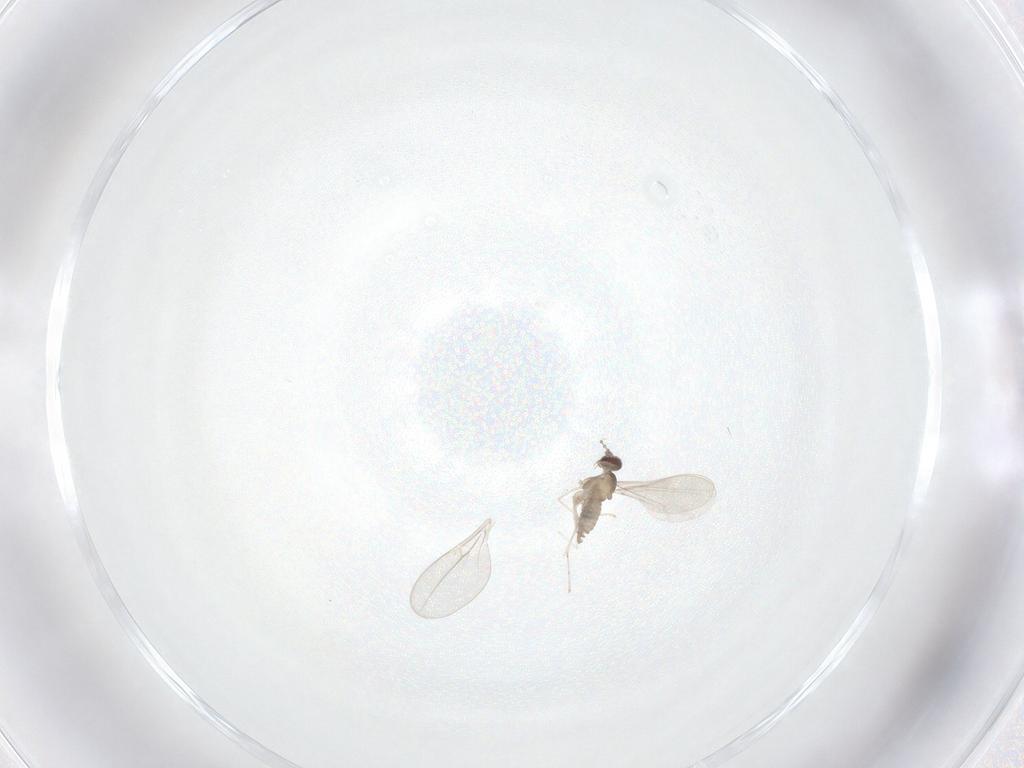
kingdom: Animalia
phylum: Arthropoda
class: Insecta
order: Diptera
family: Cecidomyiidae
